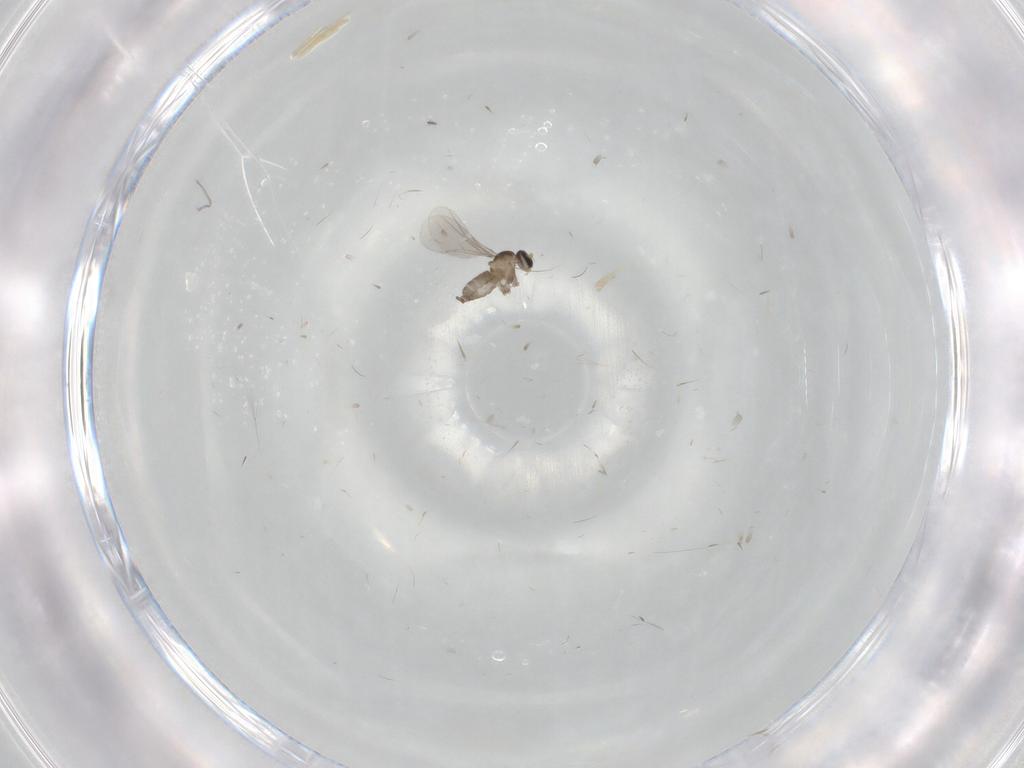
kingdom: Animalia
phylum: Arthropoda
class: Insecta
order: Diptera
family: Cecidomyiidae
